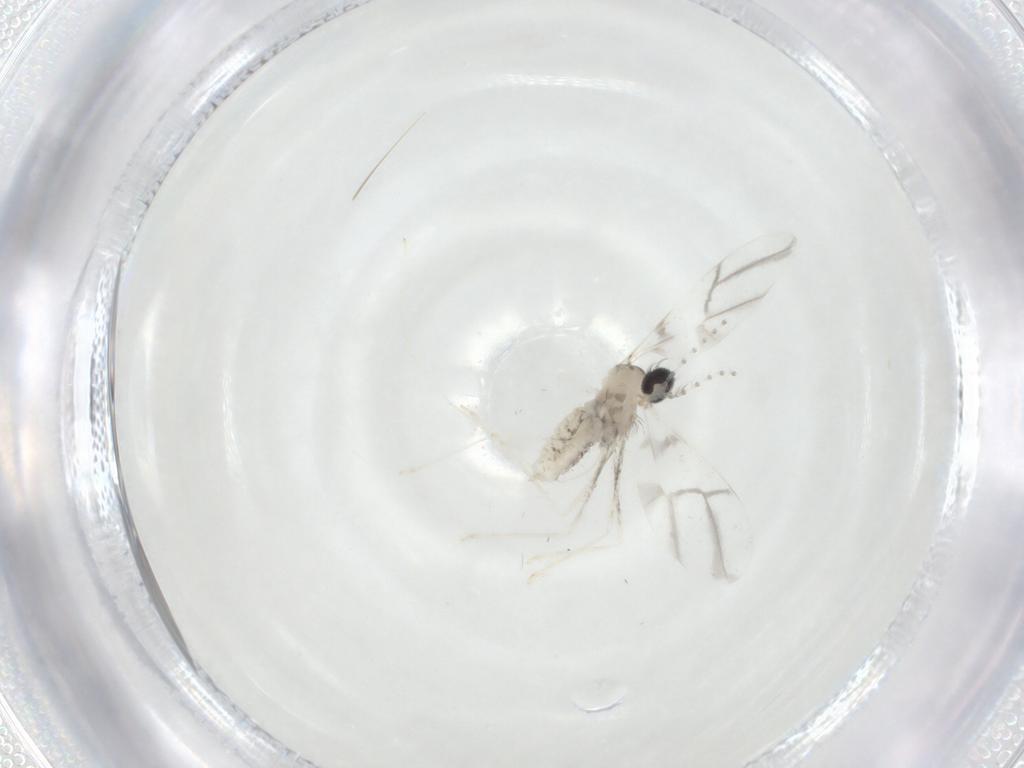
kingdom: Animalia
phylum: Arthropoda
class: Insecta
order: Diptera
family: Cecidomyiidae
